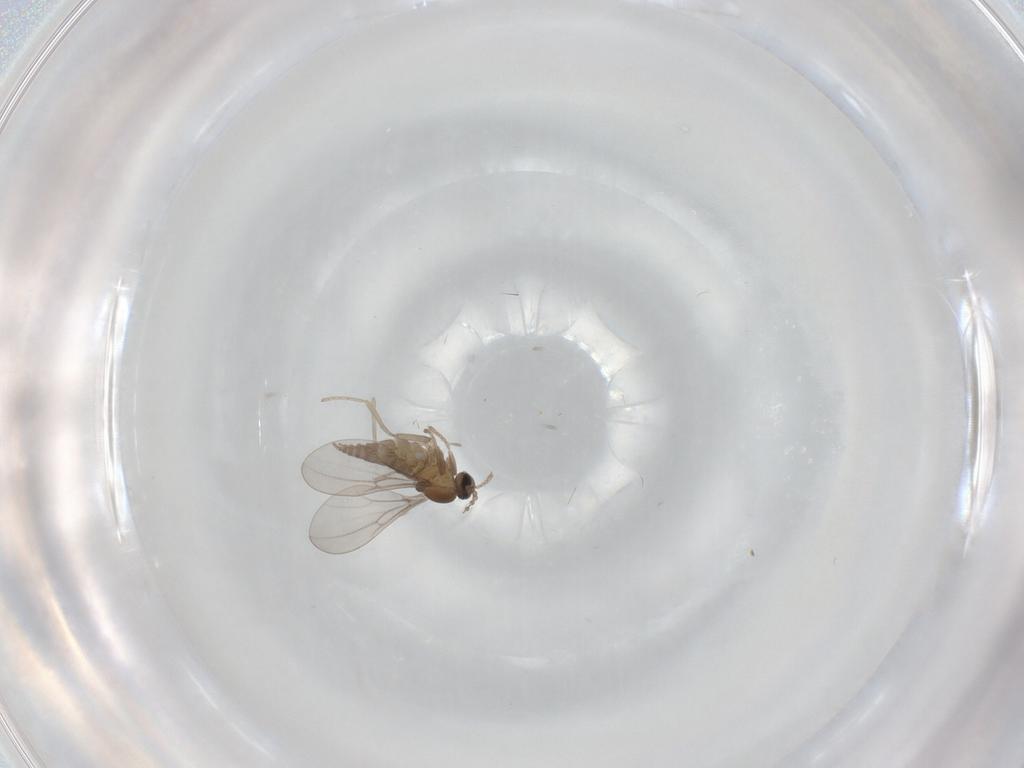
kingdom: Animalia
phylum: Arthropoda
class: Insecta
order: Diptera
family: Cecidomyiidae
